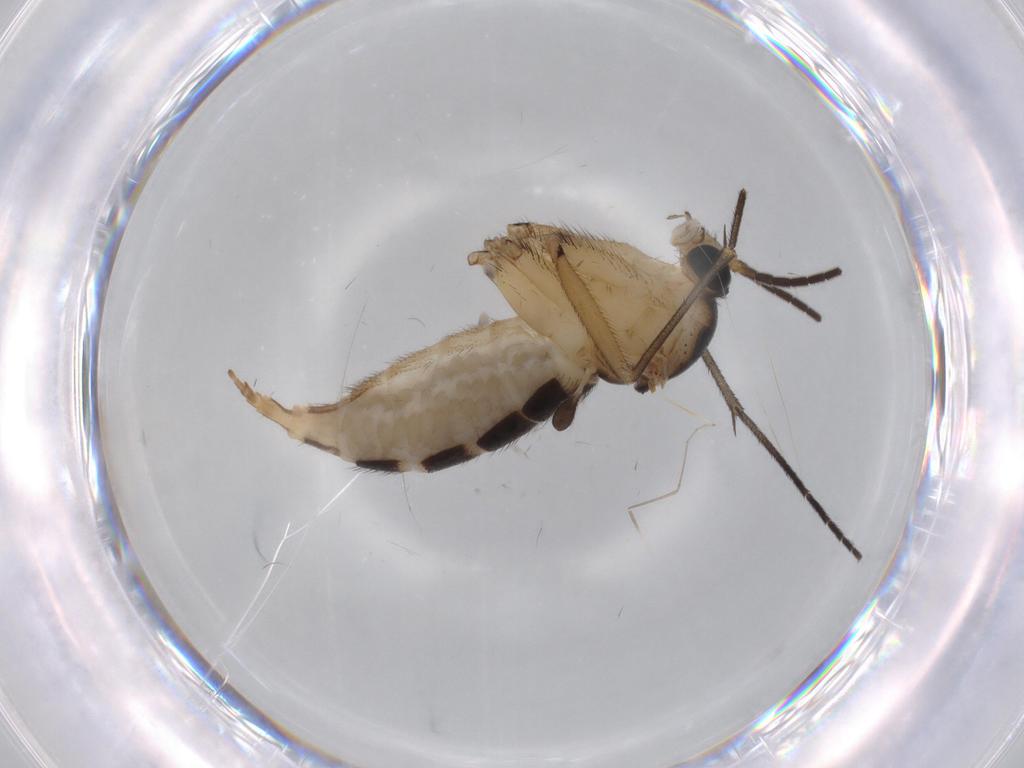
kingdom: Animalia
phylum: Arthropoda
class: Insecta
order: Diptera
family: Sciaridae
